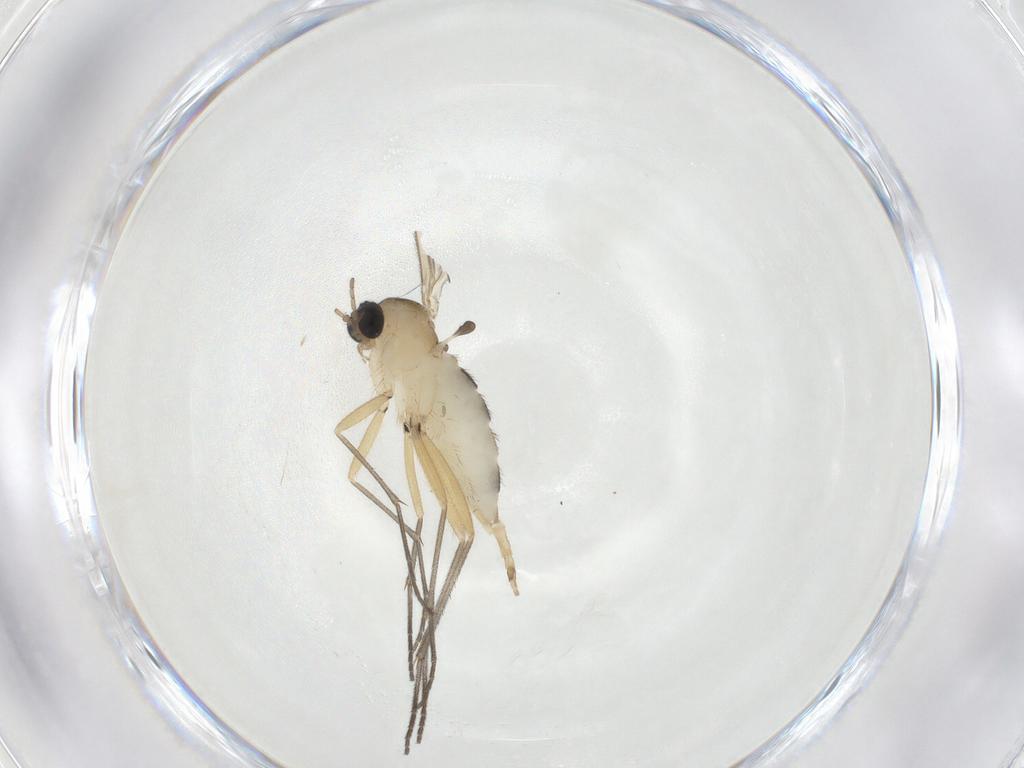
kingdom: Animalia
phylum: Arthropoda
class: Insecta
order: Diptera
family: Sciaridae
